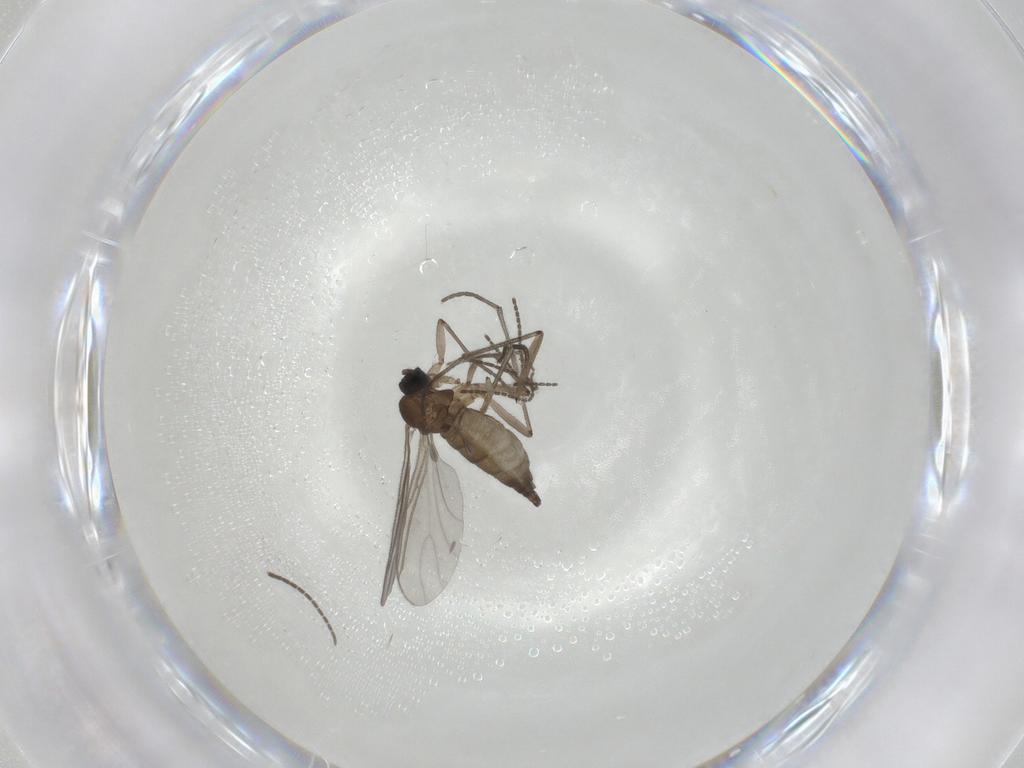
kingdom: Animalia
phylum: Arthropoda
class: Insecta
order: Diptera
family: Sciaridae
